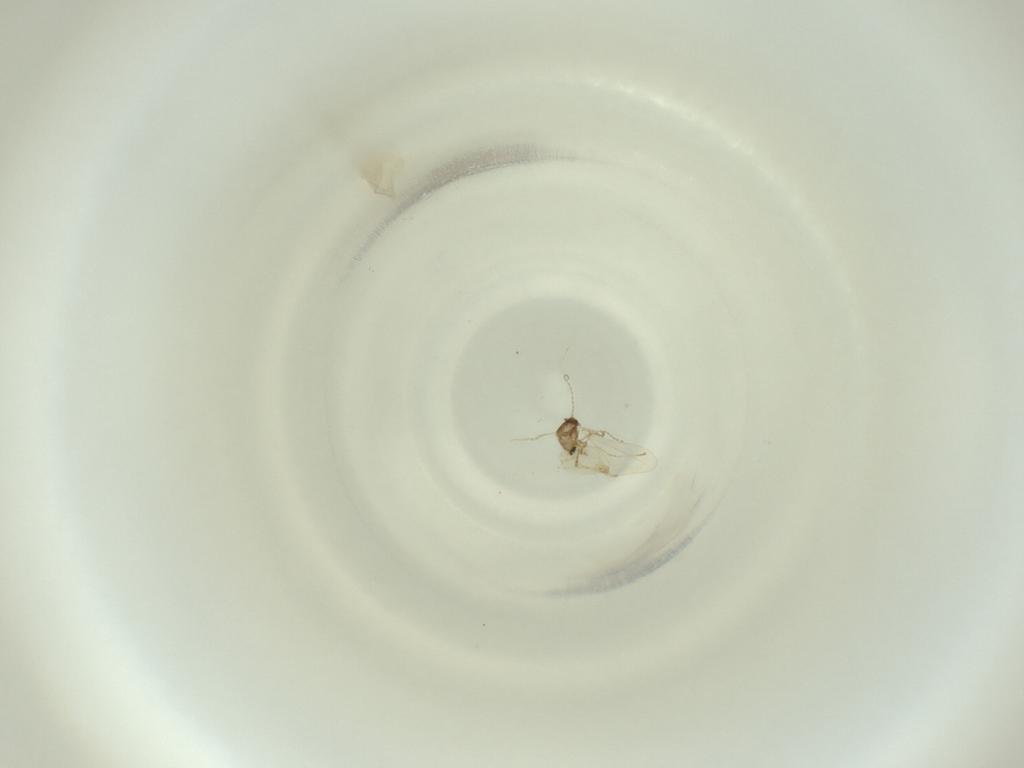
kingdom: Animalia
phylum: Arthropoda
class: Insecta
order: Diptera
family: Cecidomyiidae
